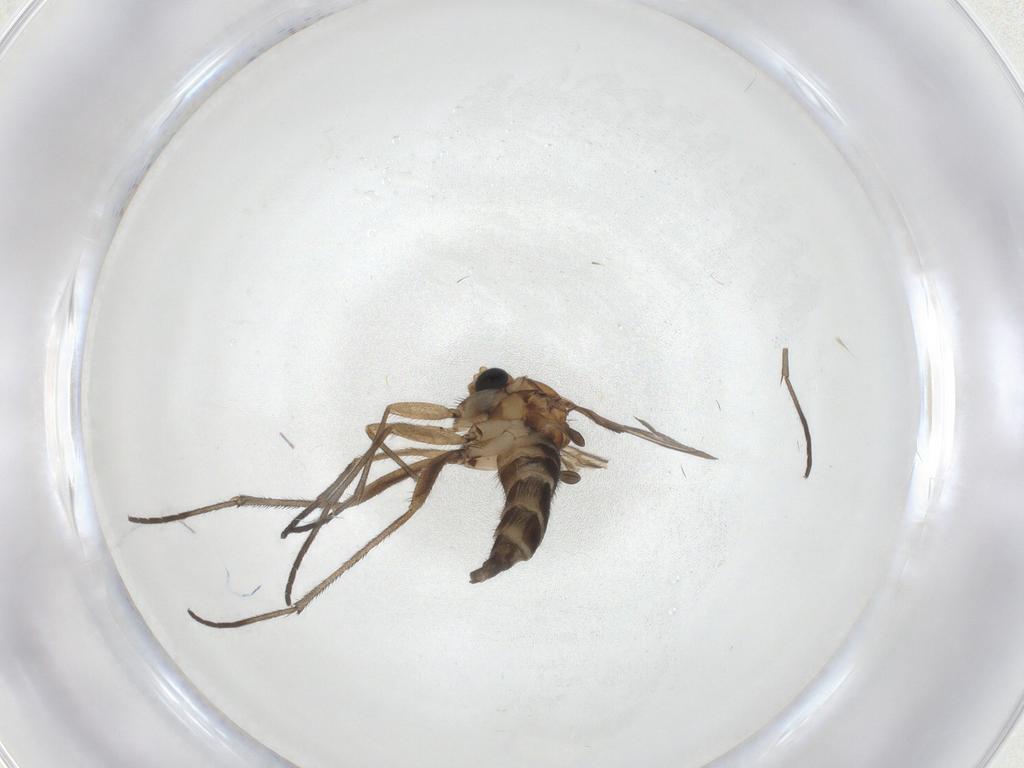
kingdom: Animalia
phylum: Arthropoda
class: Insecta
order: Diptera
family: Sciaridae
